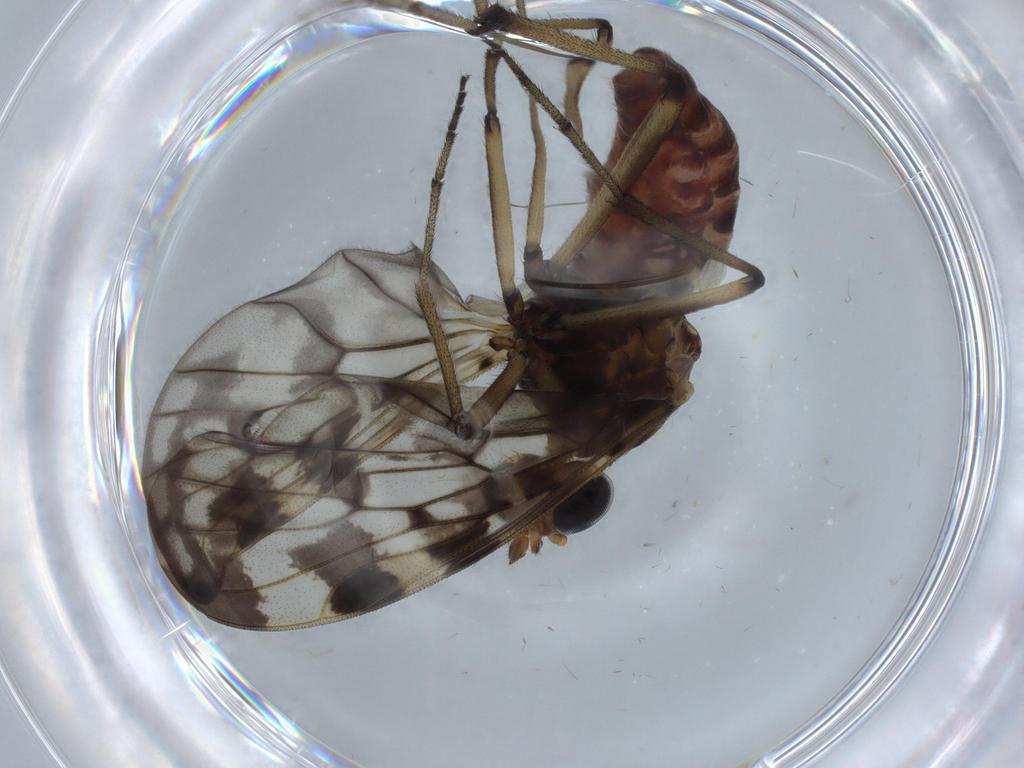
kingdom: Animalia
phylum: Arthropoda
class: Insecta
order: Diptera
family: Anisopodidae
